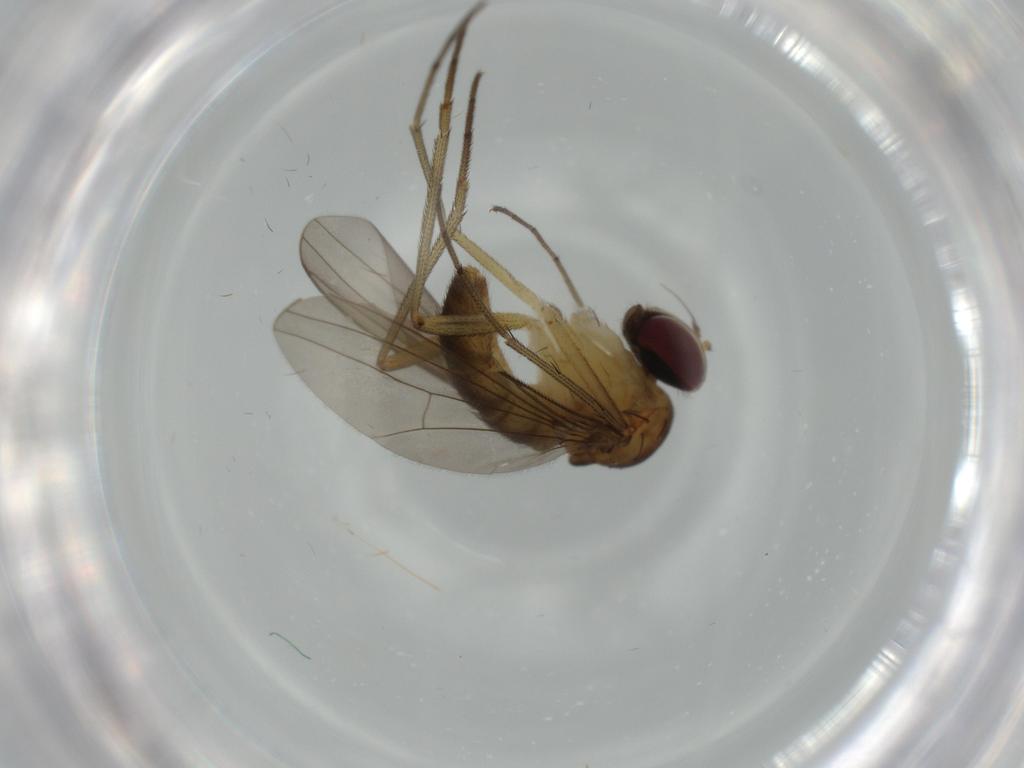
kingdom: Animalia
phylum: Arthropoda
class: Insecta
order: Diptera
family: Dolichopodidae
